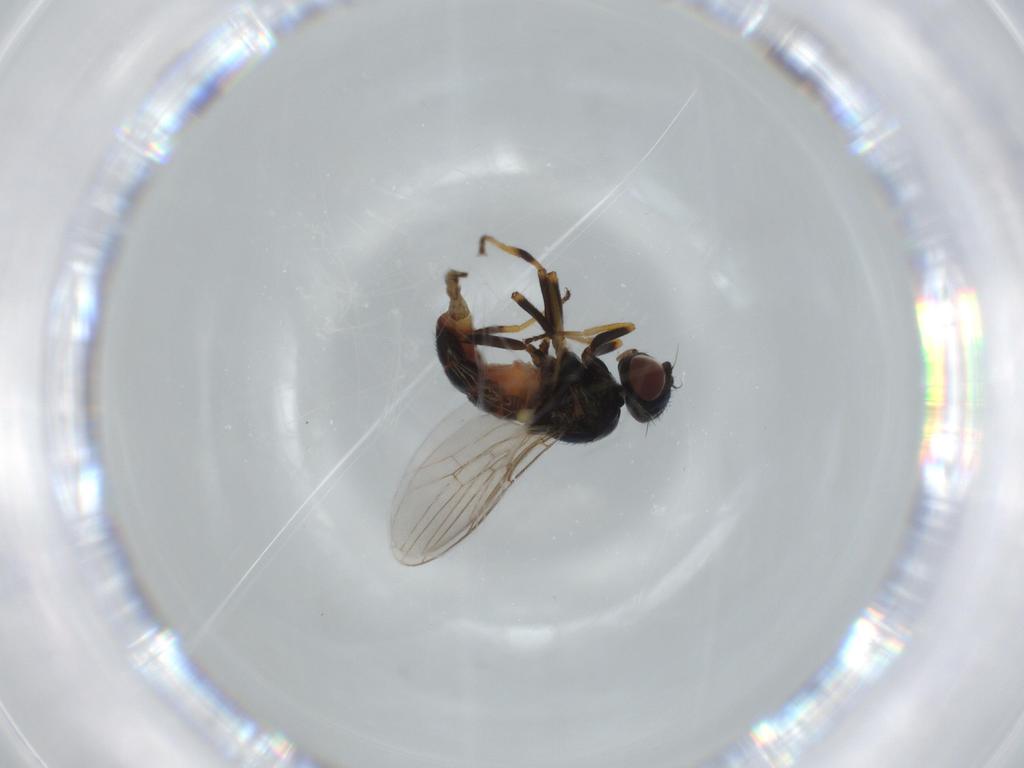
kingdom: Animalia
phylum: Arthropoda
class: Insecta
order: Diptera
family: Chloropidae
